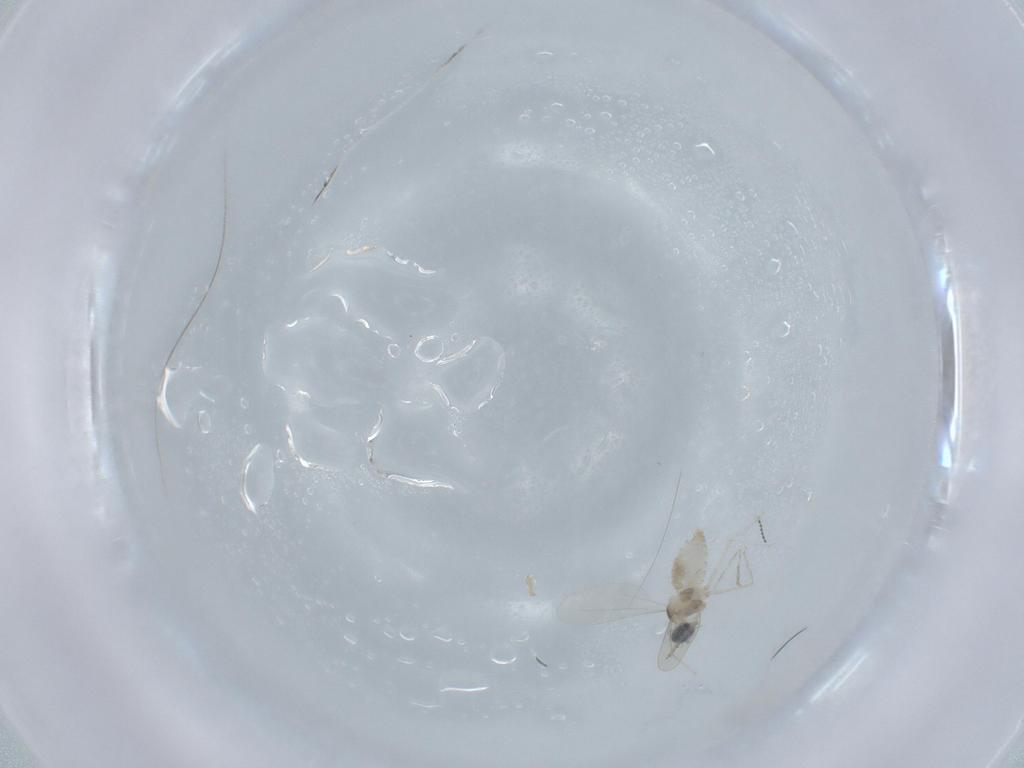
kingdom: Animalia
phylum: Arthropoda
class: Insecta
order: Diptera
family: Cecidomyiidae
